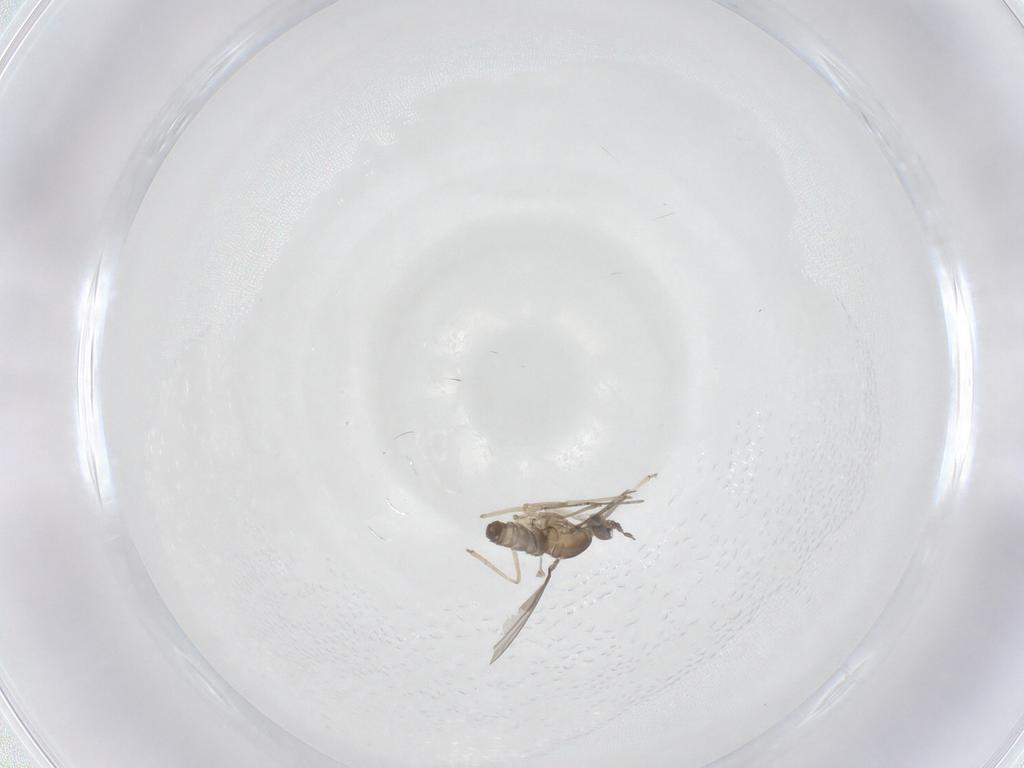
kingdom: Animalia
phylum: Arthropoda
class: Insecta
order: Diptera
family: Cecidomyiidae
